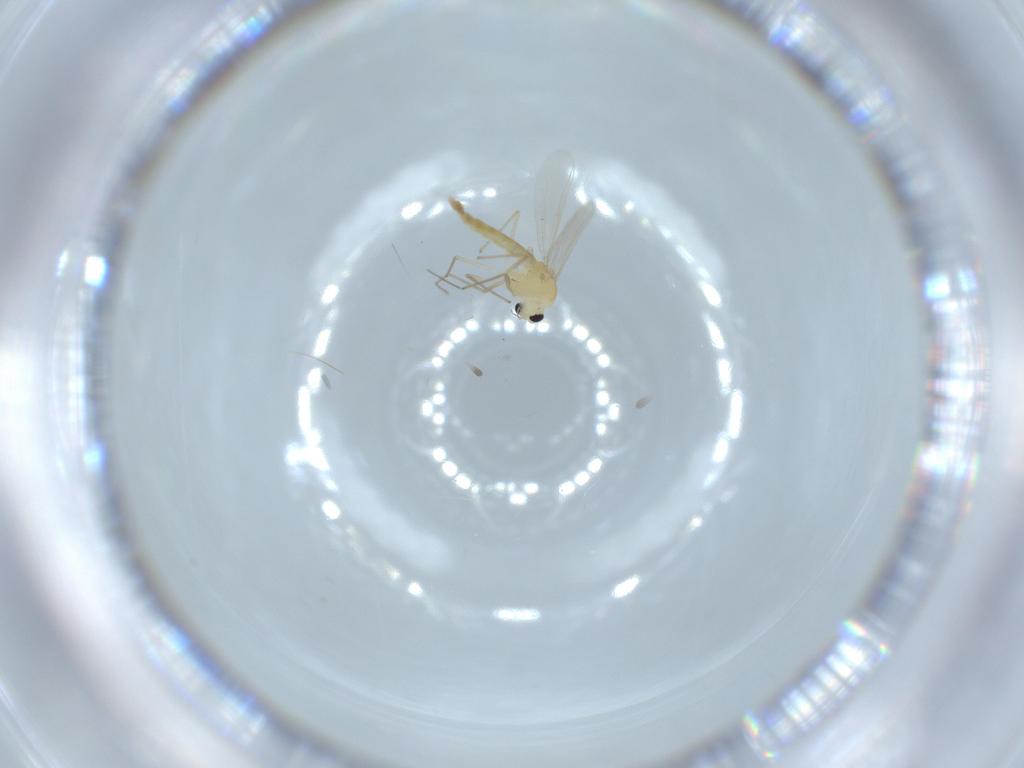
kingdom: Animalia
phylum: Arthropoda
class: Insecta
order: Diptera
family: Chironomidae
